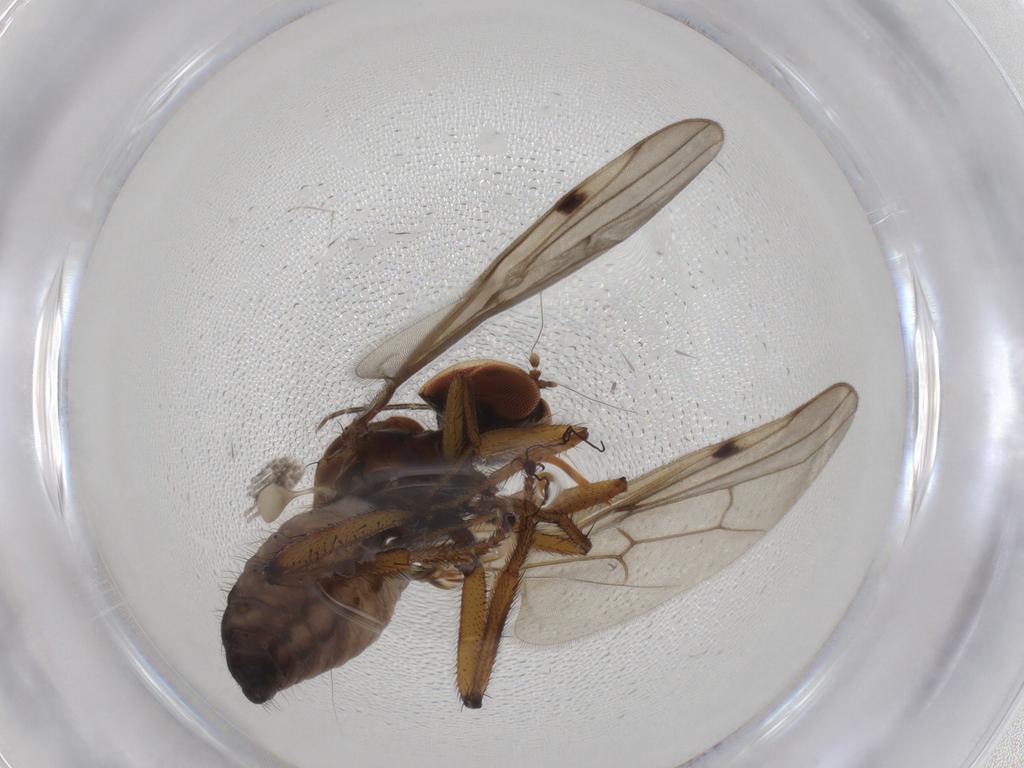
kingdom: Animalia
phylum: Arthropoda
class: Insecta
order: Diptera
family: Hybotidae
